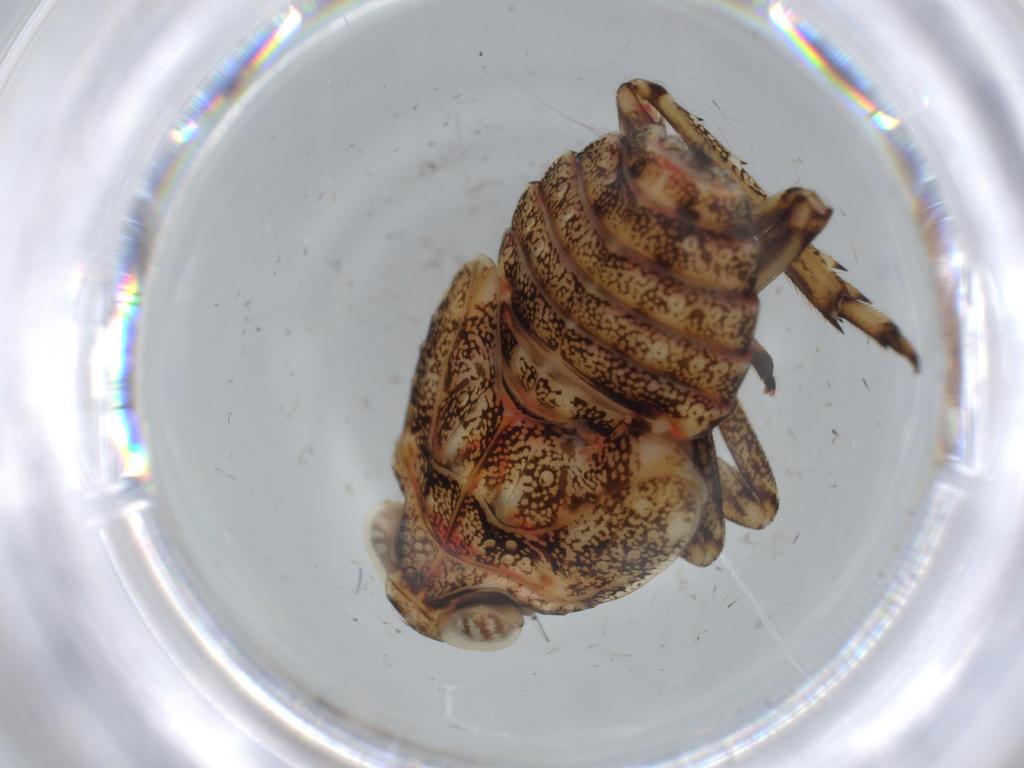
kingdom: Animalia
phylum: Arthropoda
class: Insecta
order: Hemiptera
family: Issidae
